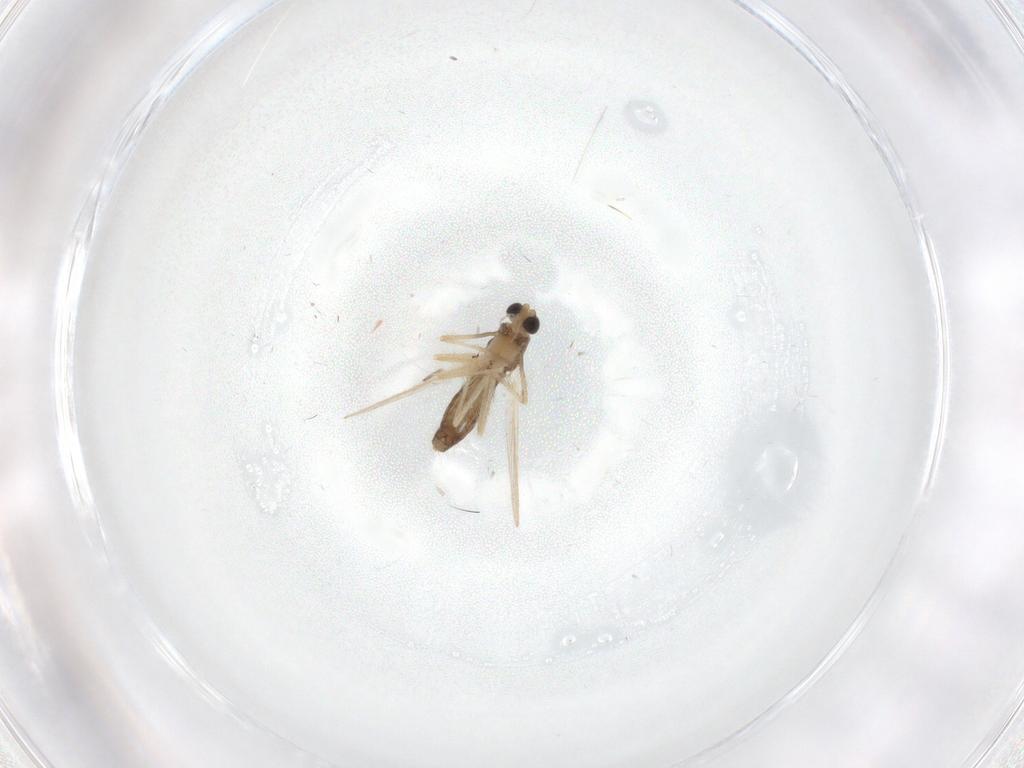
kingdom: Animalia
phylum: Arthropoda
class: Insecta
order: Diptera
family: Chironomidae
